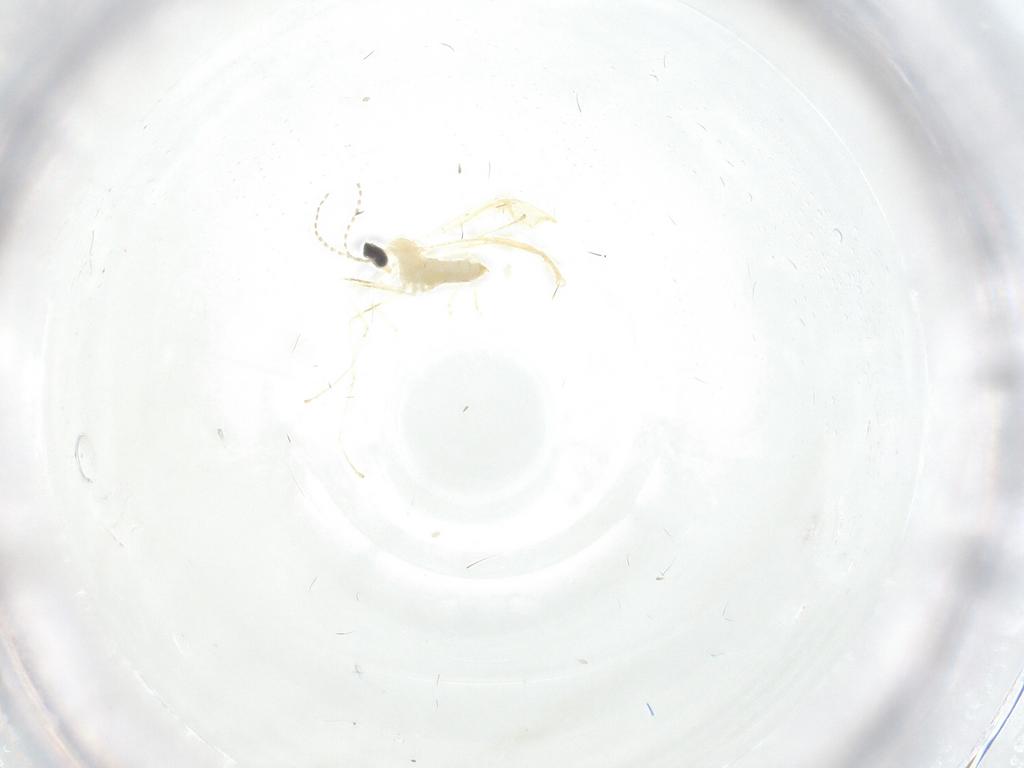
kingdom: Animalia
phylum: Arthropoda
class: Insecta
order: Diptera
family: Cecidomyiidae
